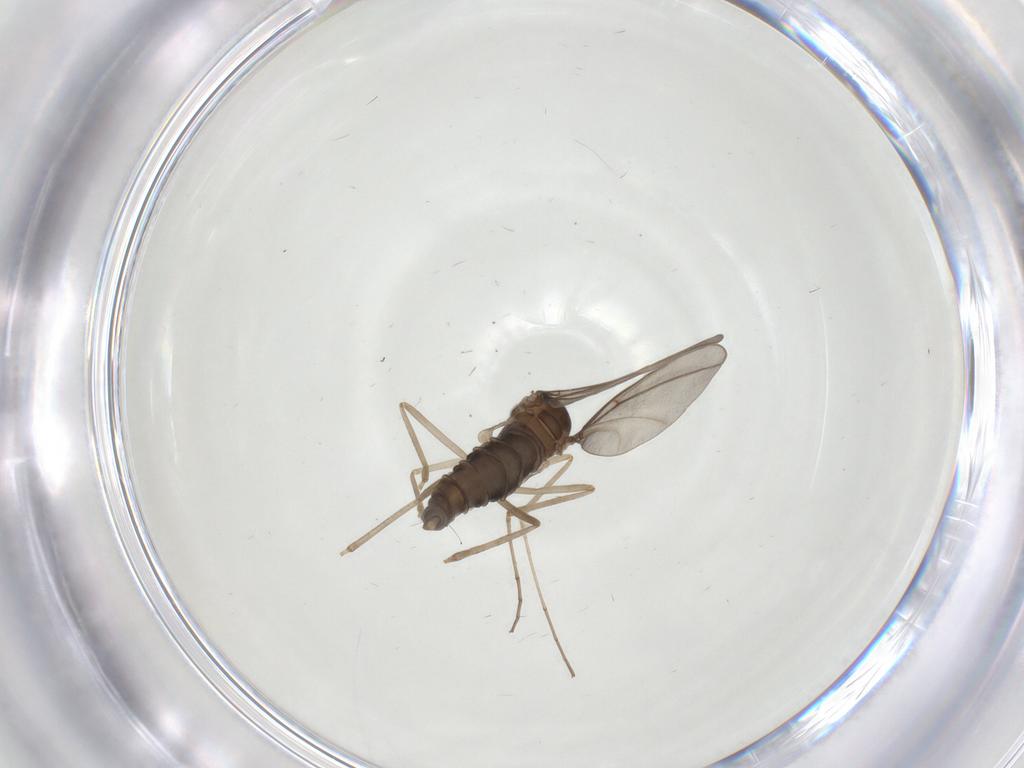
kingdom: Animalia
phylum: Arthropoda
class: Insecta
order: Diptera
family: Cecidomyiidae
